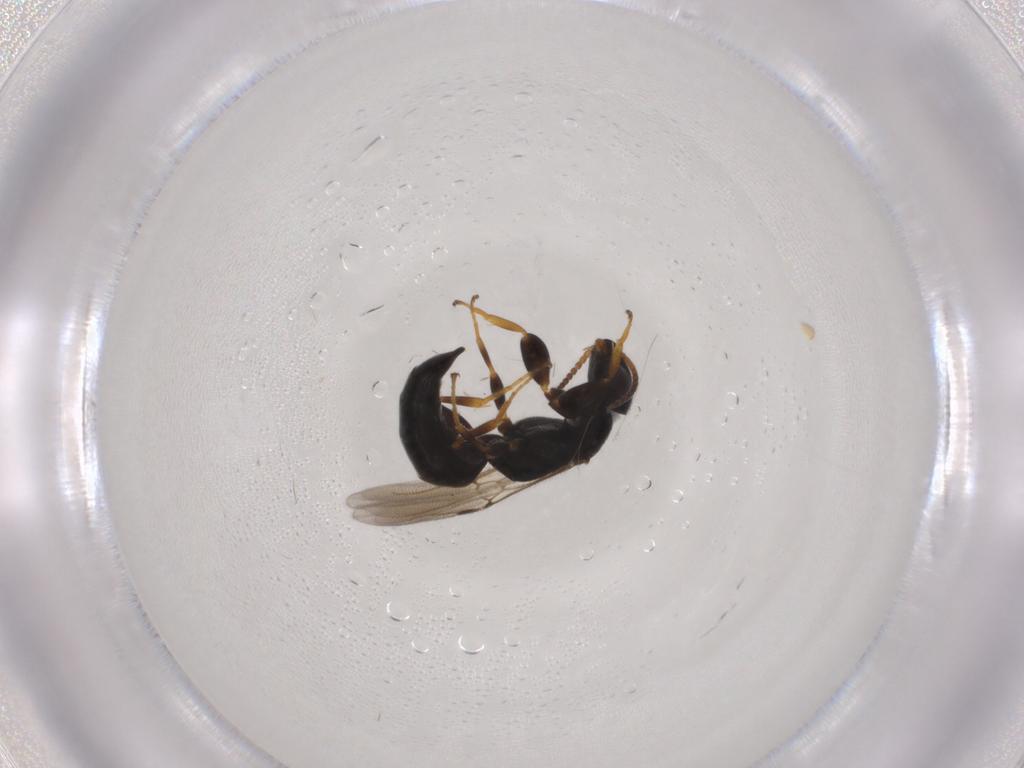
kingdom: Animalia
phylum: Arthropoda
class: Insecta
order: Hymenoptera
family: Bethylidae
